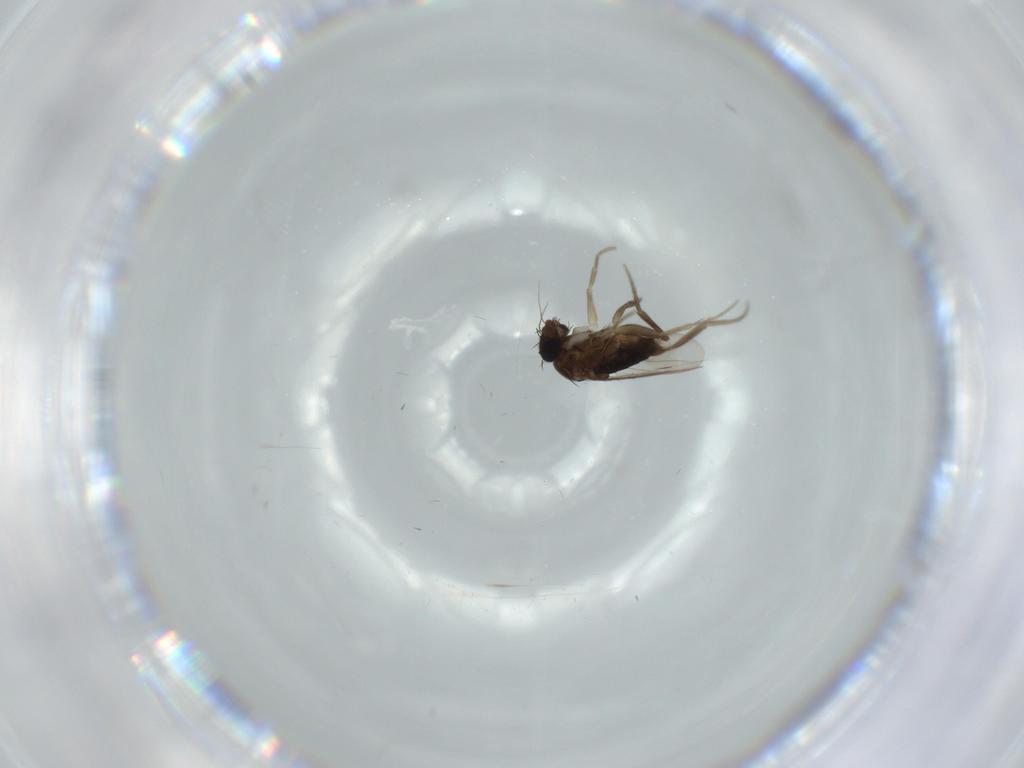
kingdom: Animalia
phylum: Arthropoda
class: Insecta
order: Diptera
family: Phoridae
